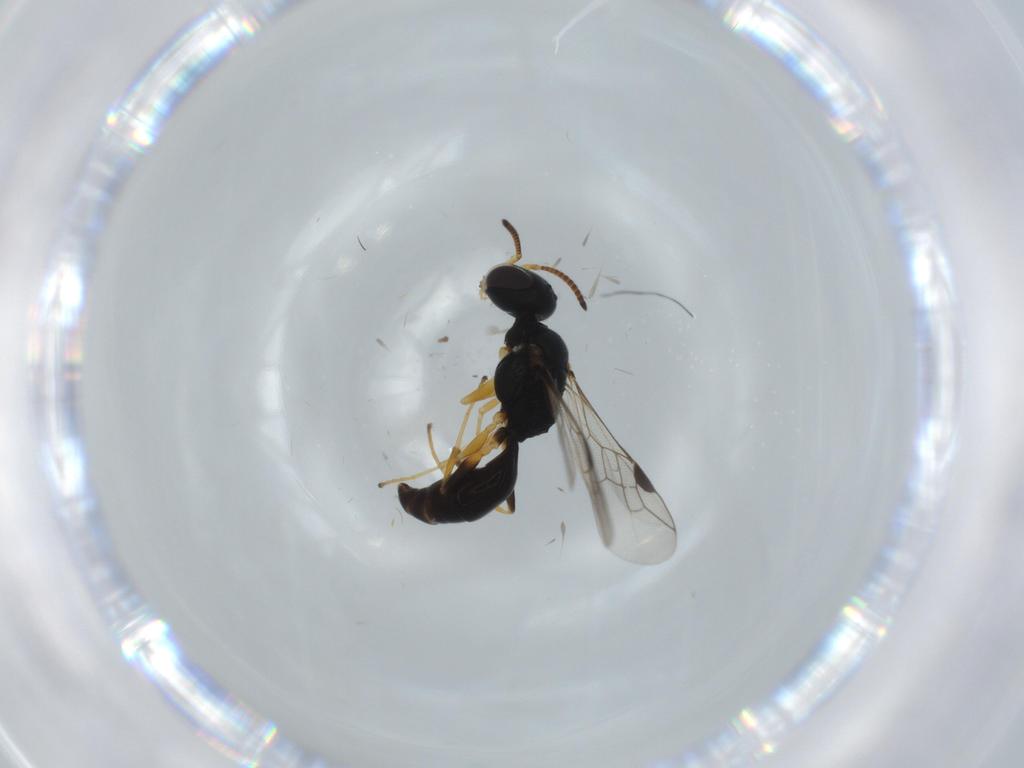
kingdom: Animalia
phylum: Arthropoda
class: Insecta
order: Hymenoptera
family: Pemphredonidae
